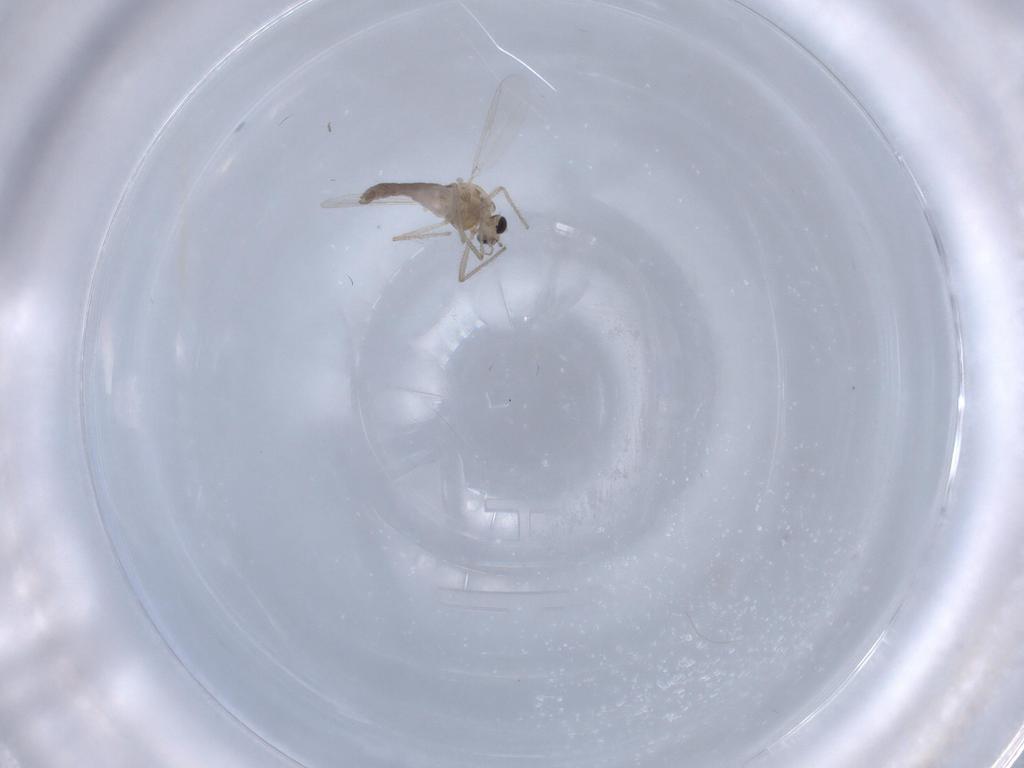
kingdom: Animalia
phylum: Arthropoda
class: Insecta
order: Diptera
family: Chironomidae
